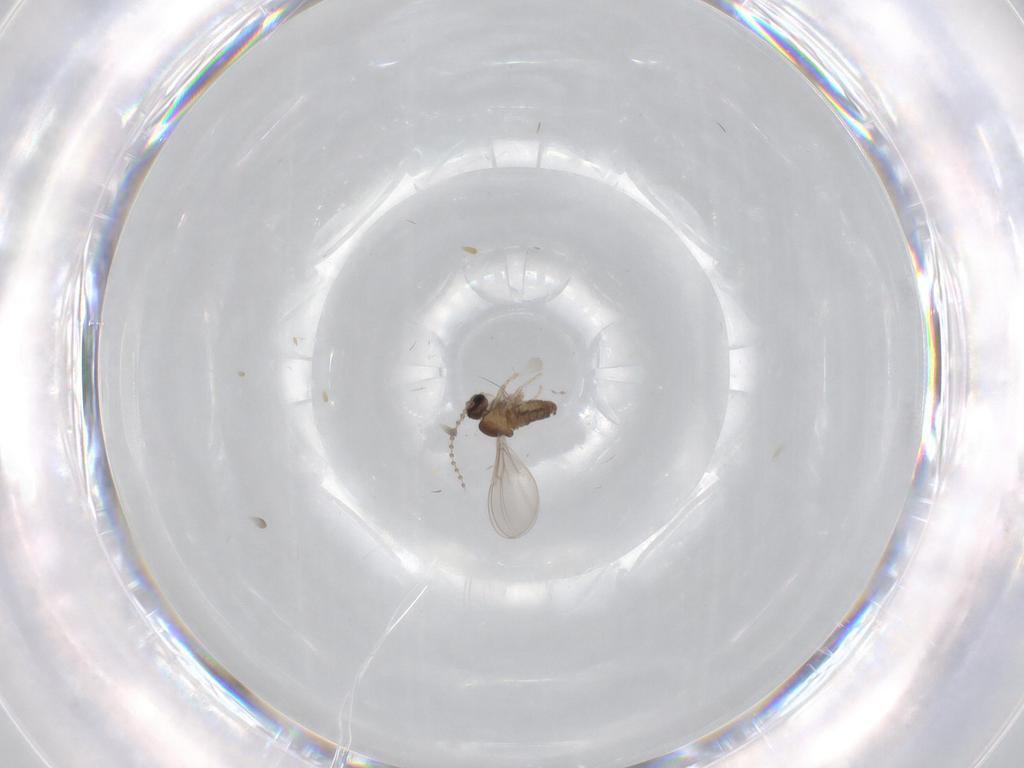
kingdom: Animalia
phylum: Arthropoda
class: Insecta
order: Diptera
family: Cecidomyiidae
